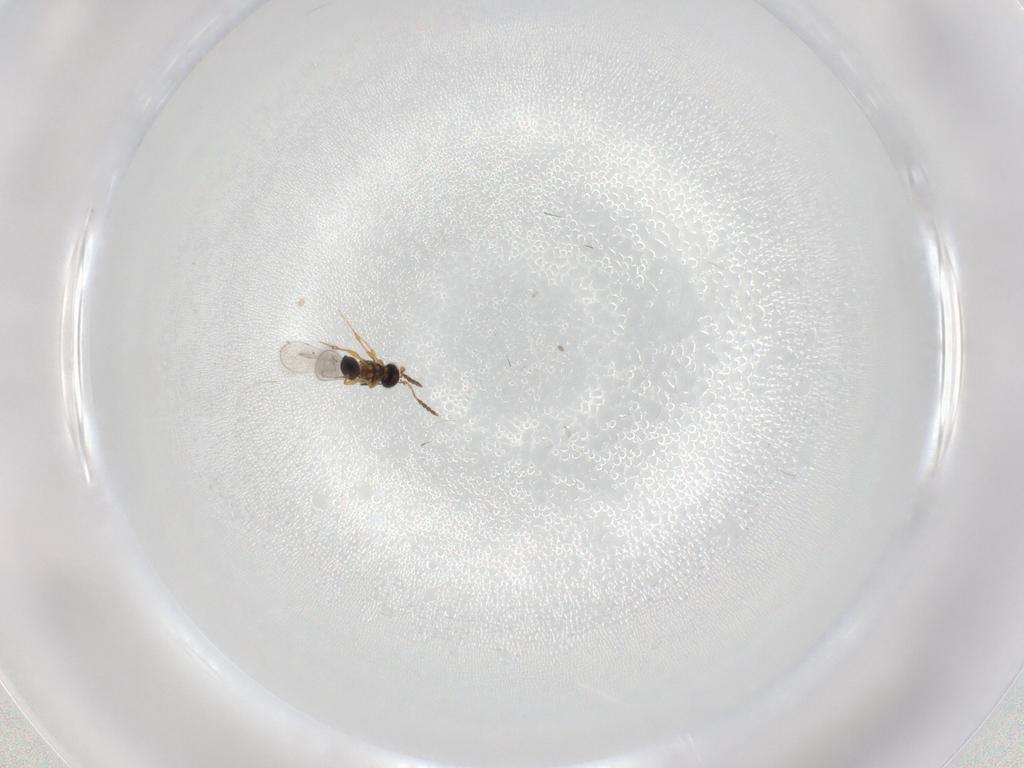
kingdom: Animalia
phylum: Arthropoda
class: Insecta
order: Hymenoptera
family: Platygastridae
